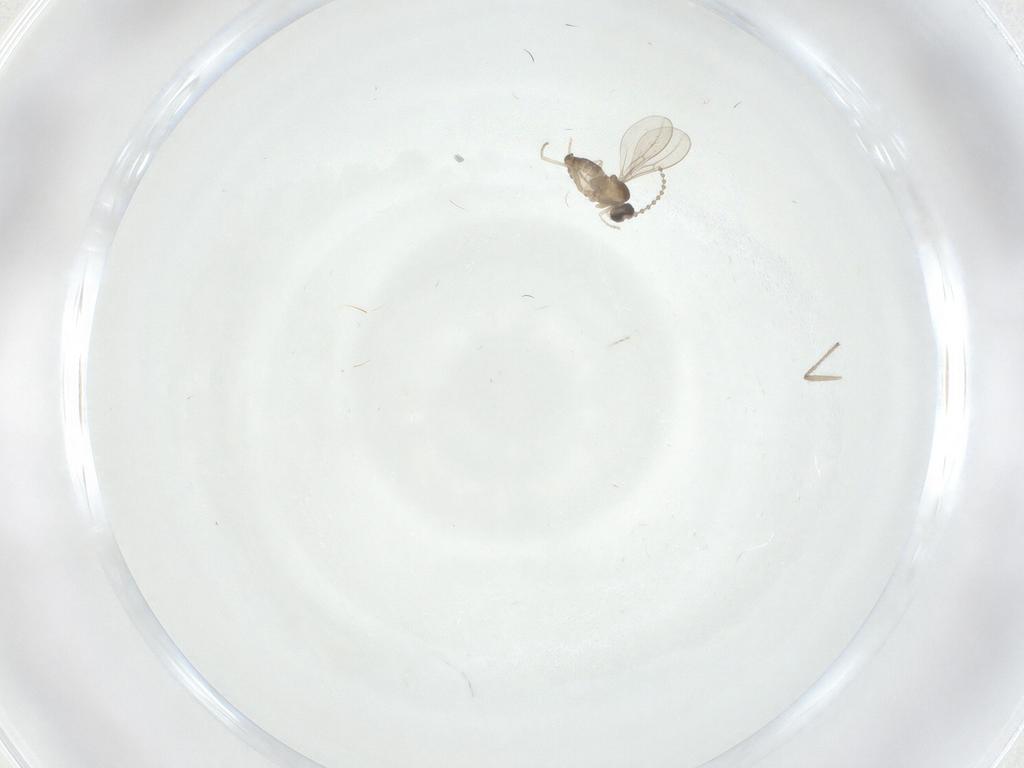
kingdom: Animalia
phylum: Arthropoda
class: Insecta
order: Diptera
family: Cecidomyiidae
